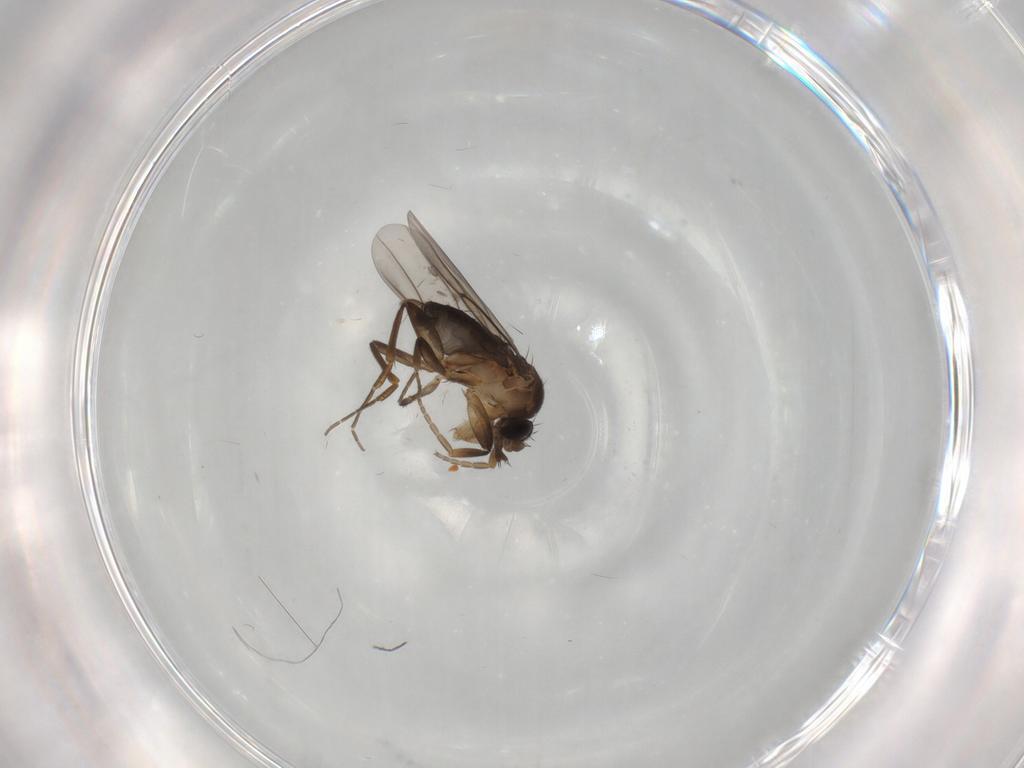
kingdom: Animalia
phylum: Arthropoda
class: Insecta
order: Diptera
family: Phoridae
